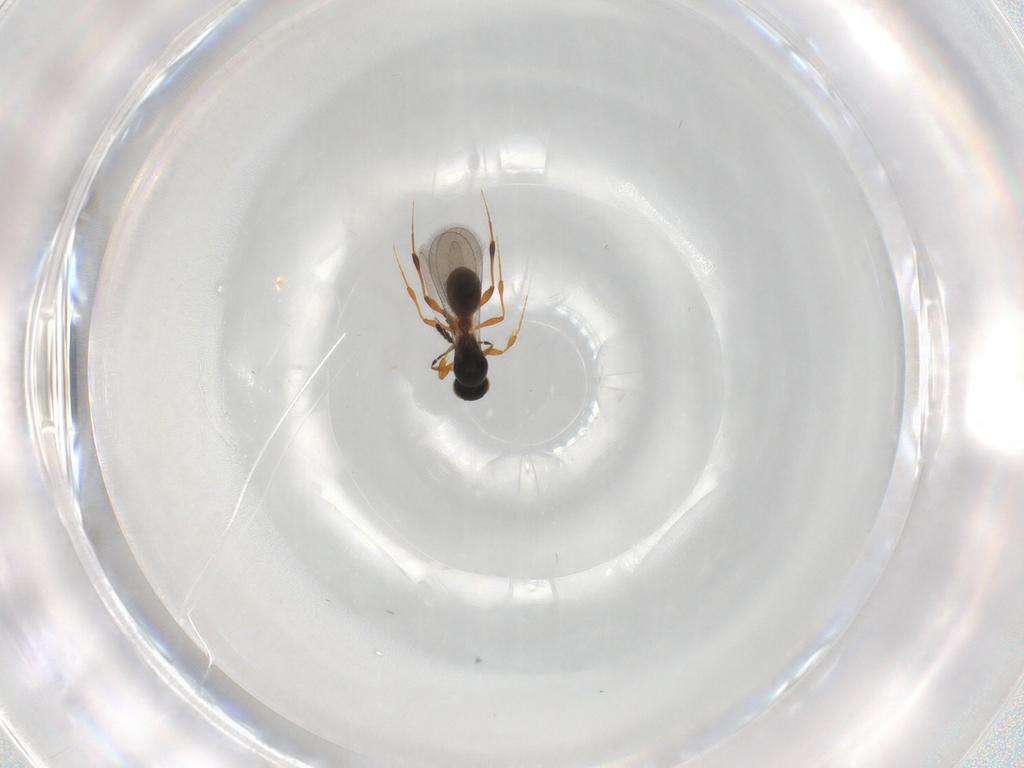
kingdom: Animalia
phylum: Arthropoda
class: Insecta
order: Hymenoptera
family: Platygastridae
